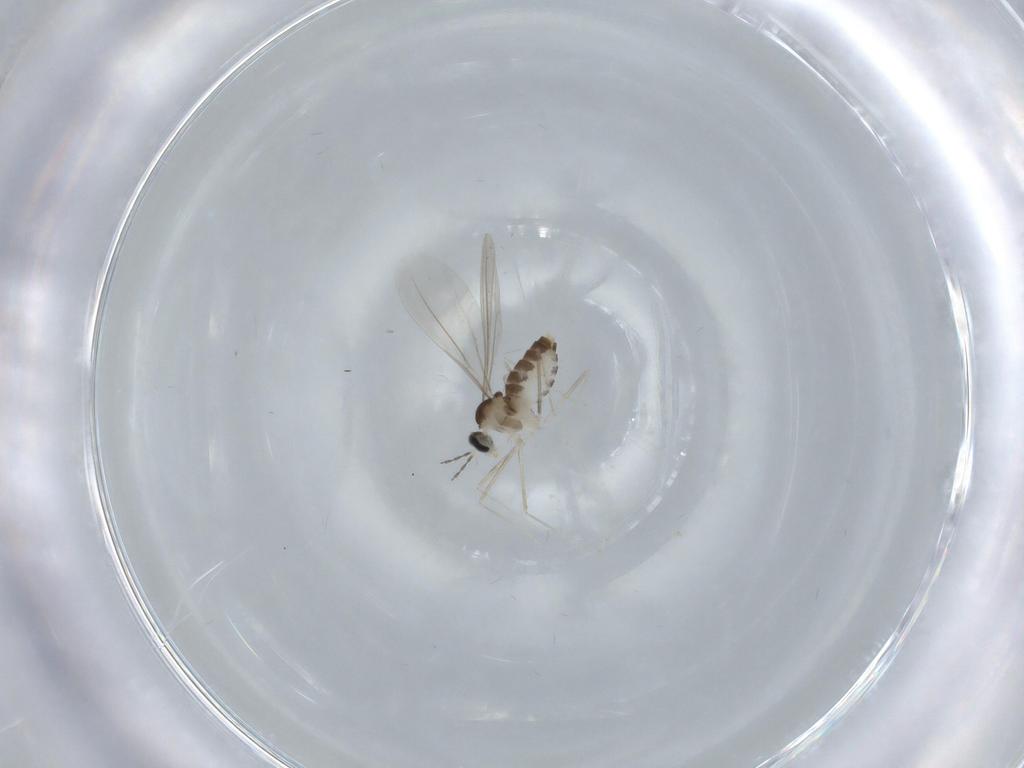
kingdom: Animalia
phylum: Arthropoda
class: Insecta
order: Diptera
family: Cecidomyiidae
